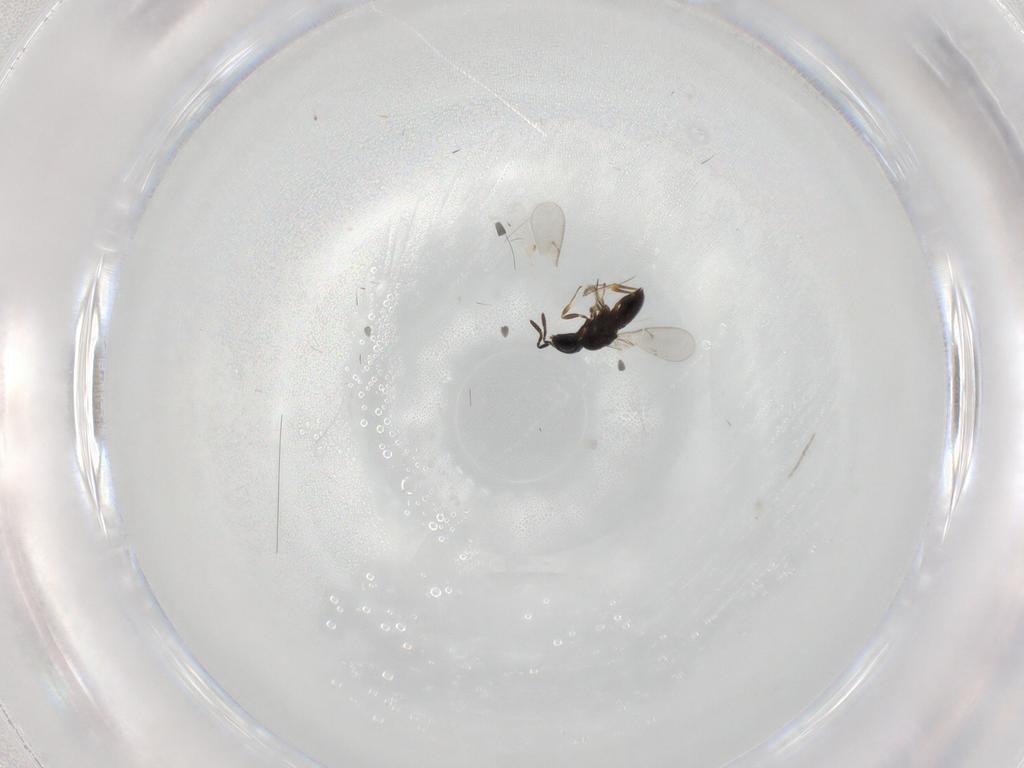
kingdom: Animalia
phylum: Arthropoda
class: Insecta
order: Hymenoptera
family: Scelionidae
